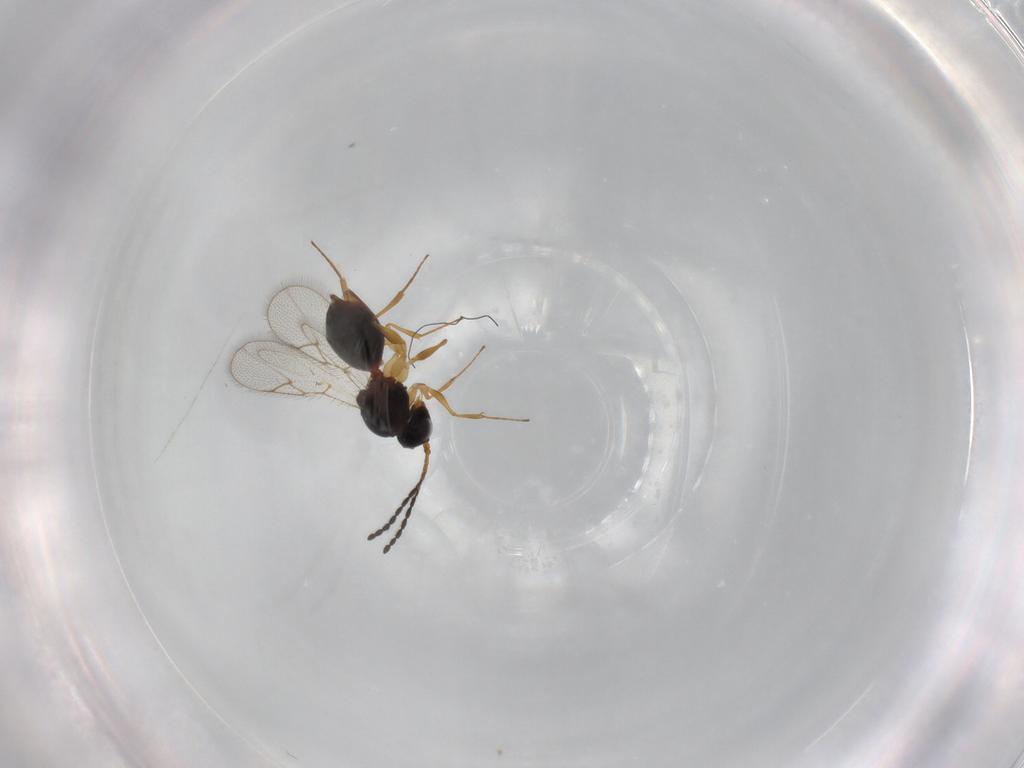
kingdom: Animalia
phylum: Arthropoda
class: Insecta
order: Hymenoptera
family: Figitidae
